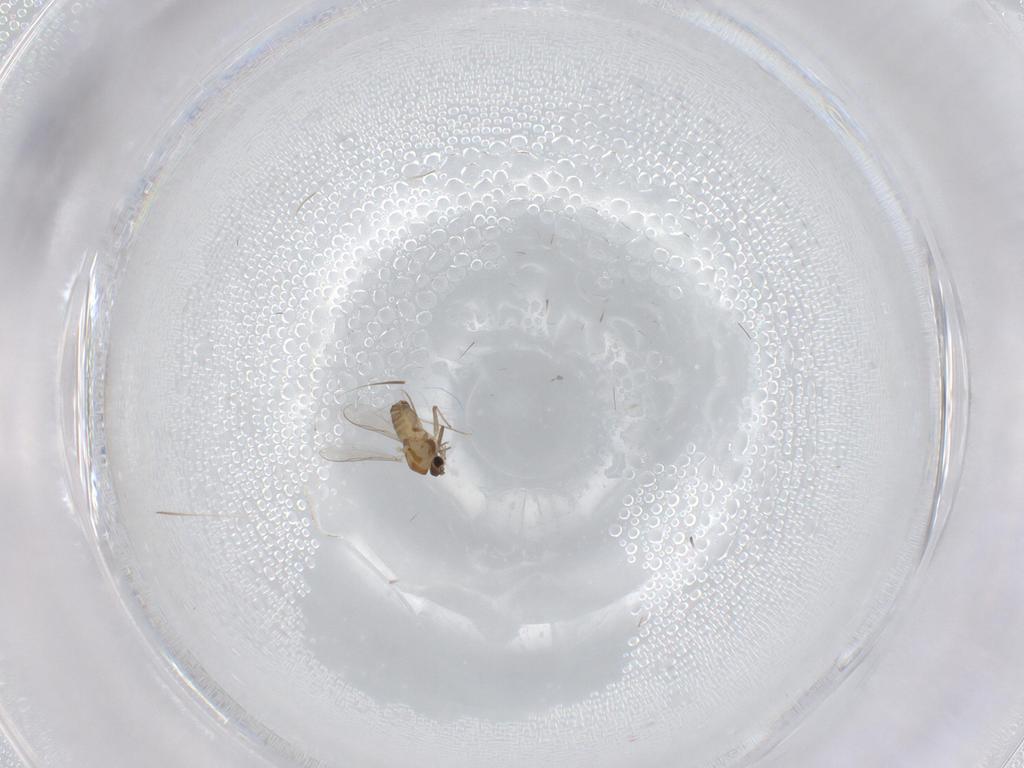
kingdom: Animalia
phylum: Arthropoda
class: Insecta
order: Diptera
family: Chironomidae
